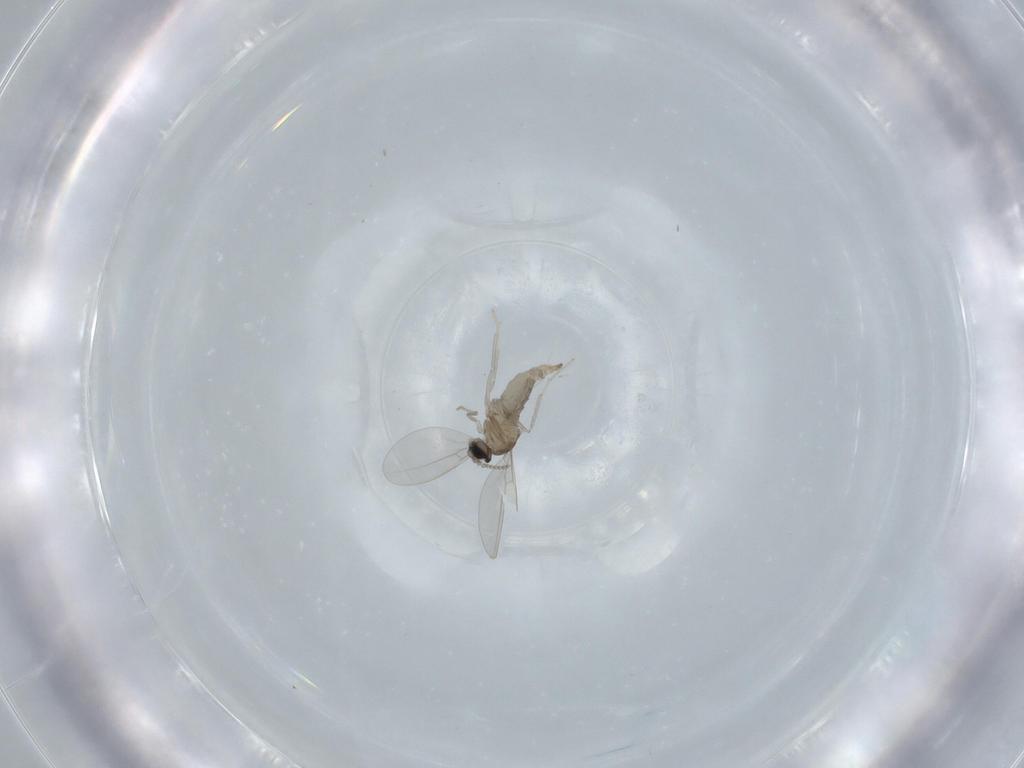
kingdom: Animalia
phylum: Arthropoda
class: Insecta
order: Diptera
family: Cecidomyiidae
